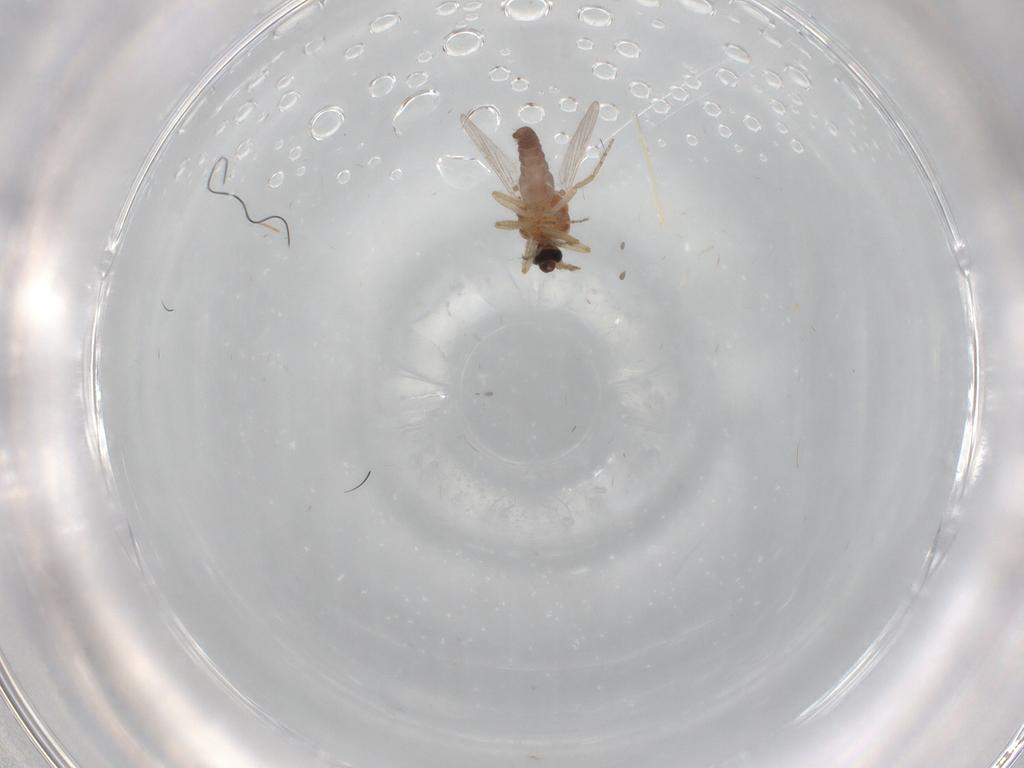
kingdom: Animalia
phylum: Arthropoda
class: Insecta
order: Diptera
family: Ceratopogonidae
